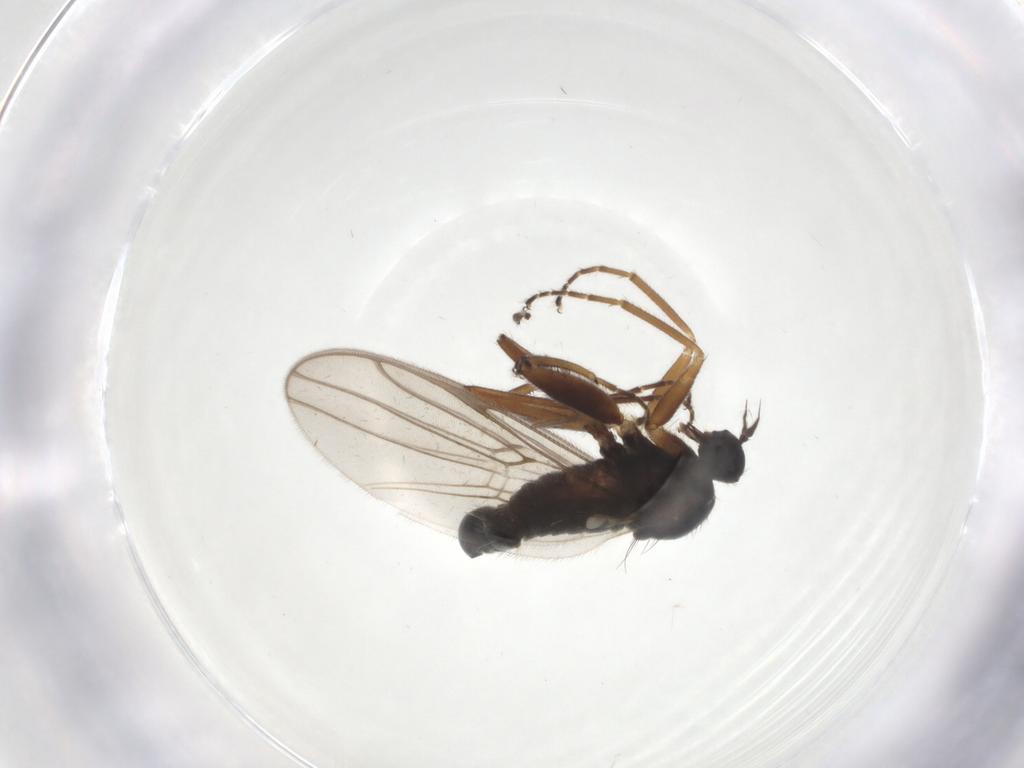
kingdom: Animalia
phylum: Arthropoda
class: Insecta
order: Diptera
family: Hybotidae
